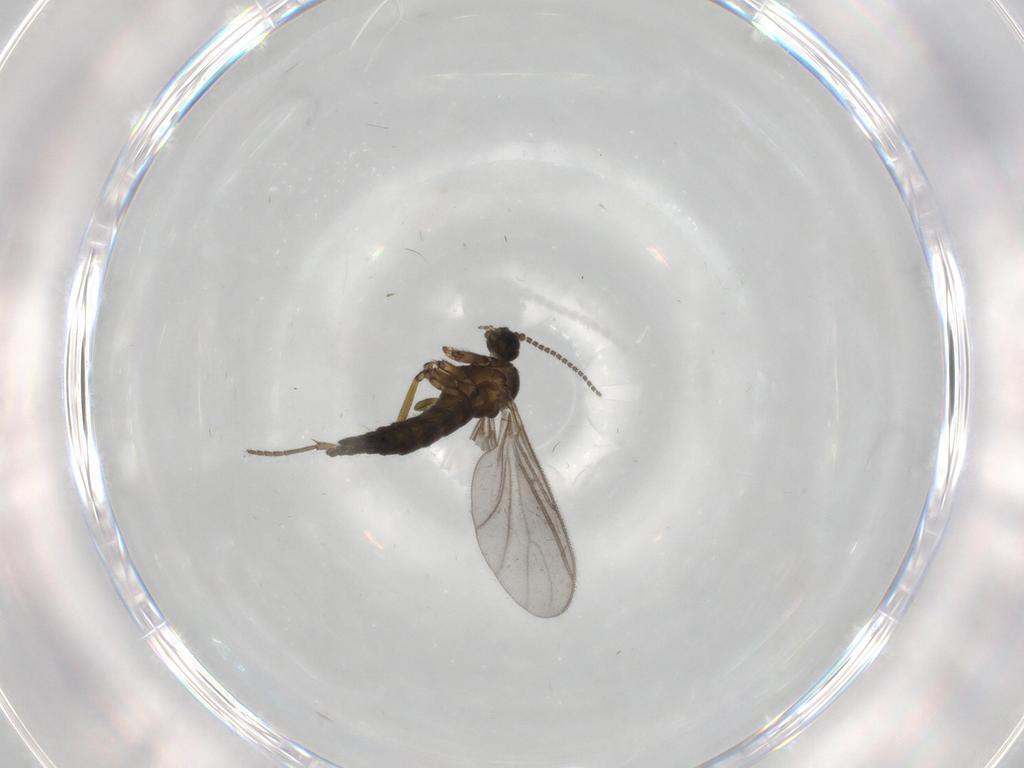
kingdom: Animalia
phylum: Arthropoda
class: Insecta
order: Diptera
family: Sciaridae
